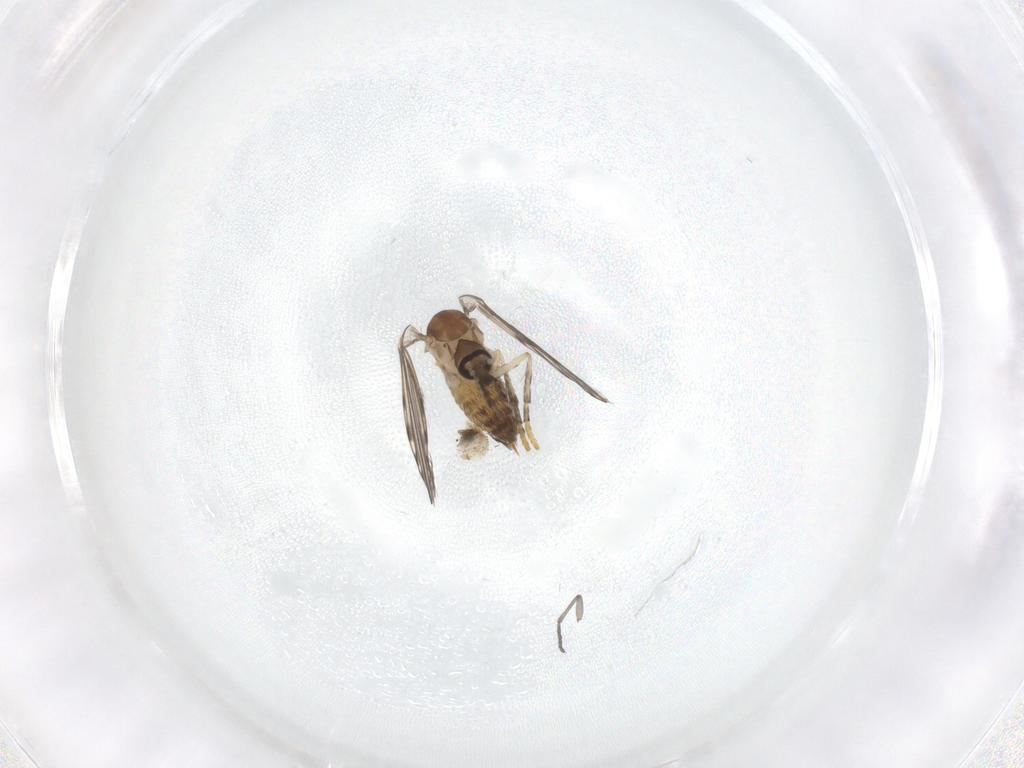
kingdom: Animalia
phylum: Arthropoda
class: Insecta
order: Diptera
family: Psychodidae
